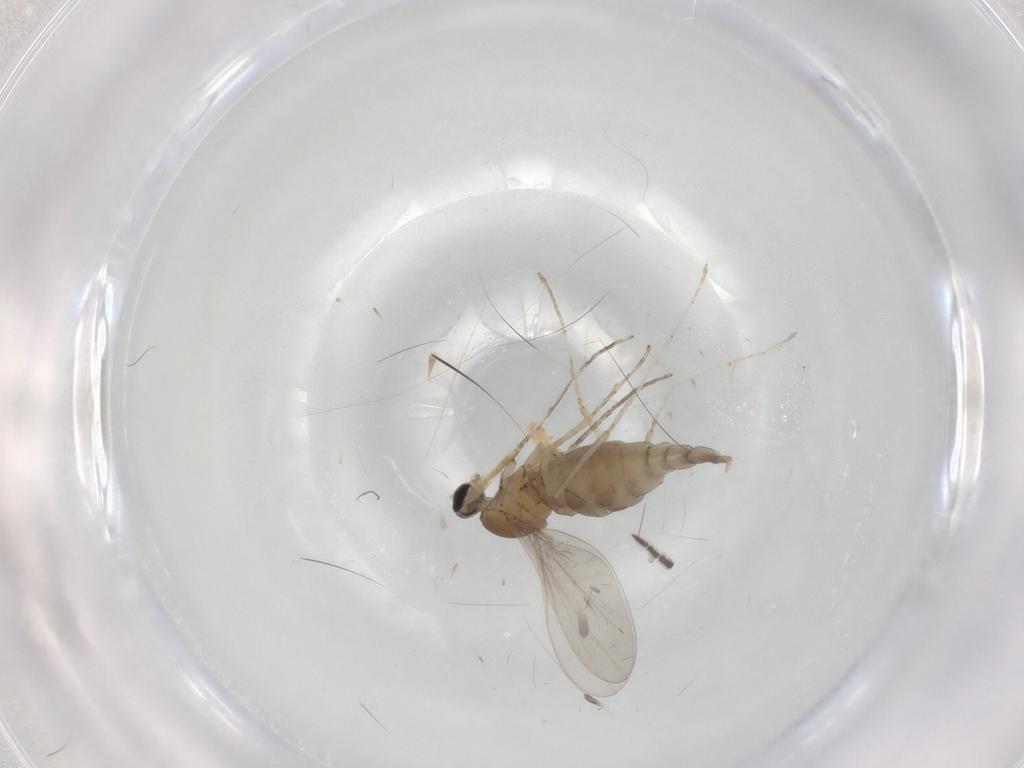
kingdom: Animalia
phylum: Arthropoda
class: Insecta
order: Diptera
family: Cecidomyiidae
